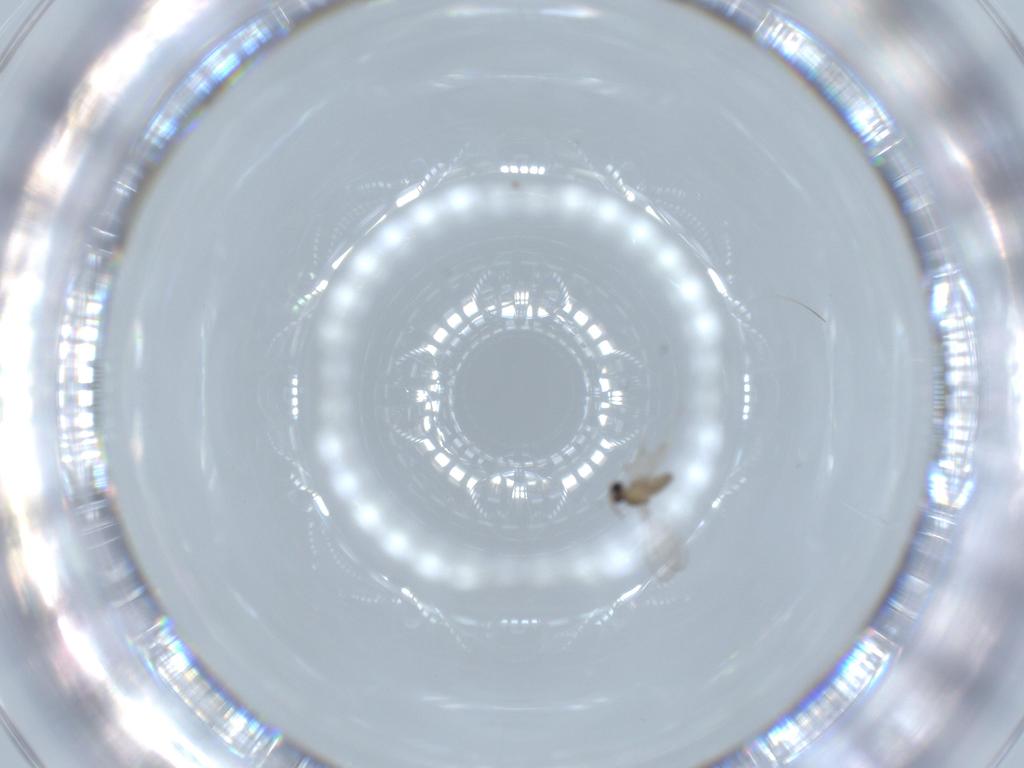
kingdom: Animalia
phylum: Arthropoda
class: Insecta
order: Diptera
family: Cecidomyiidae
